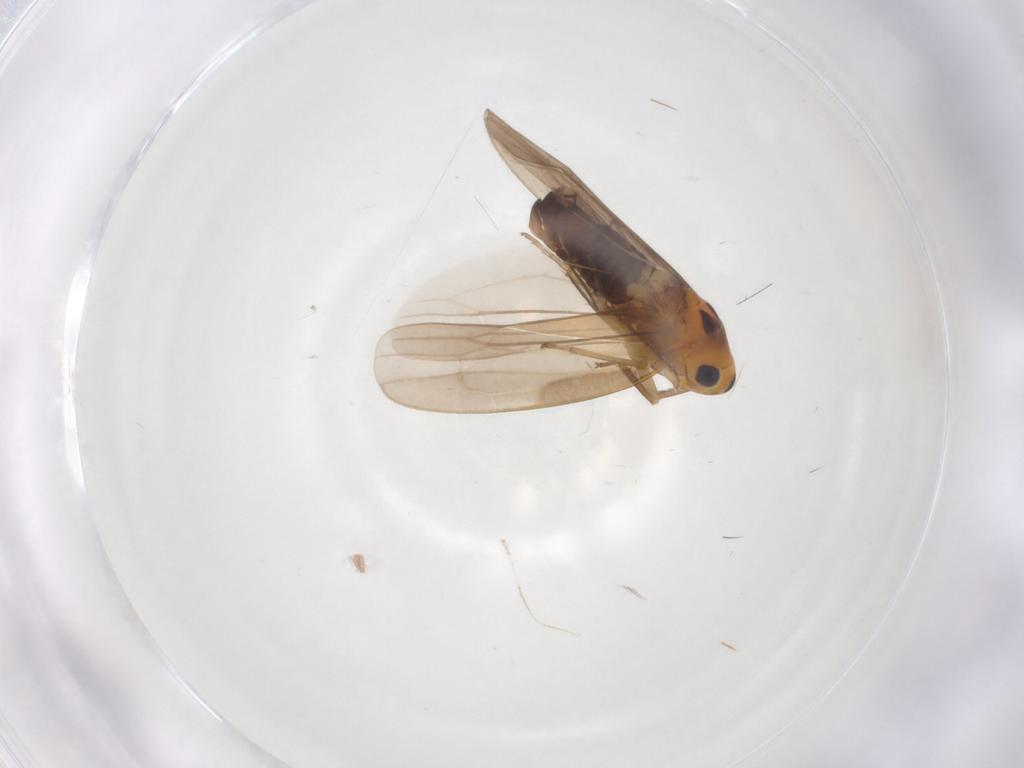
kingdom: Animalia
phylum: Arthropoda
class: Insecta
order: Hemiptera
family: Cicadellidae
